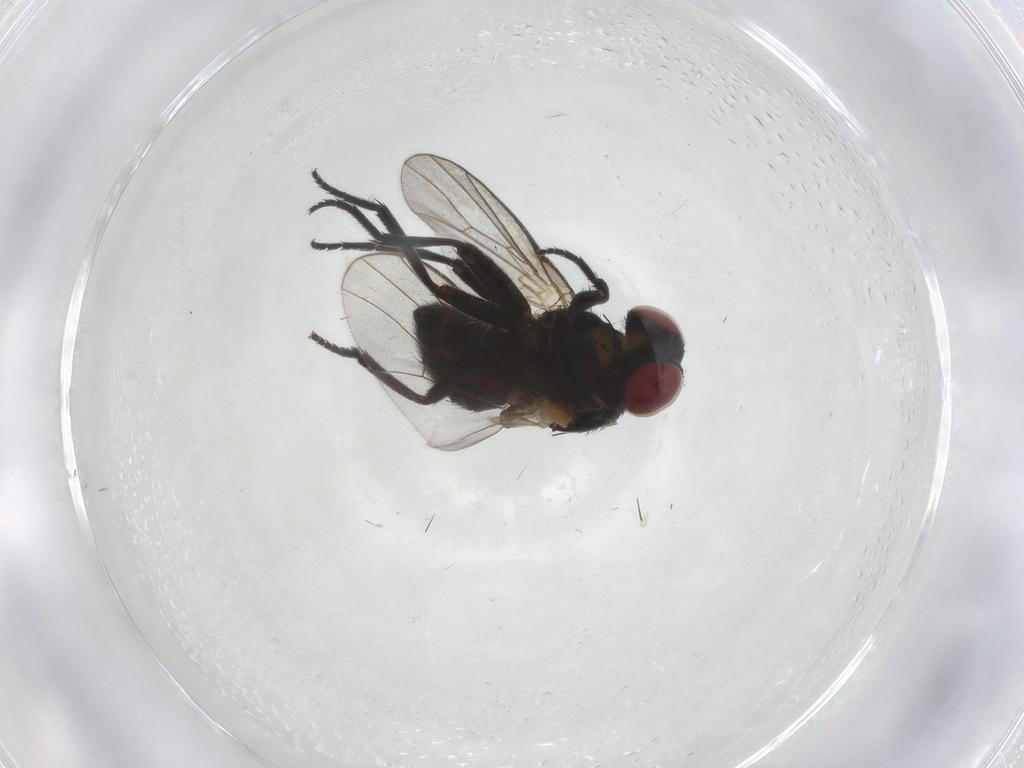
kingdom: Animalia
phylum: Arthropoda
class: Insecta
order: Diptera
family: Agromyzidae
